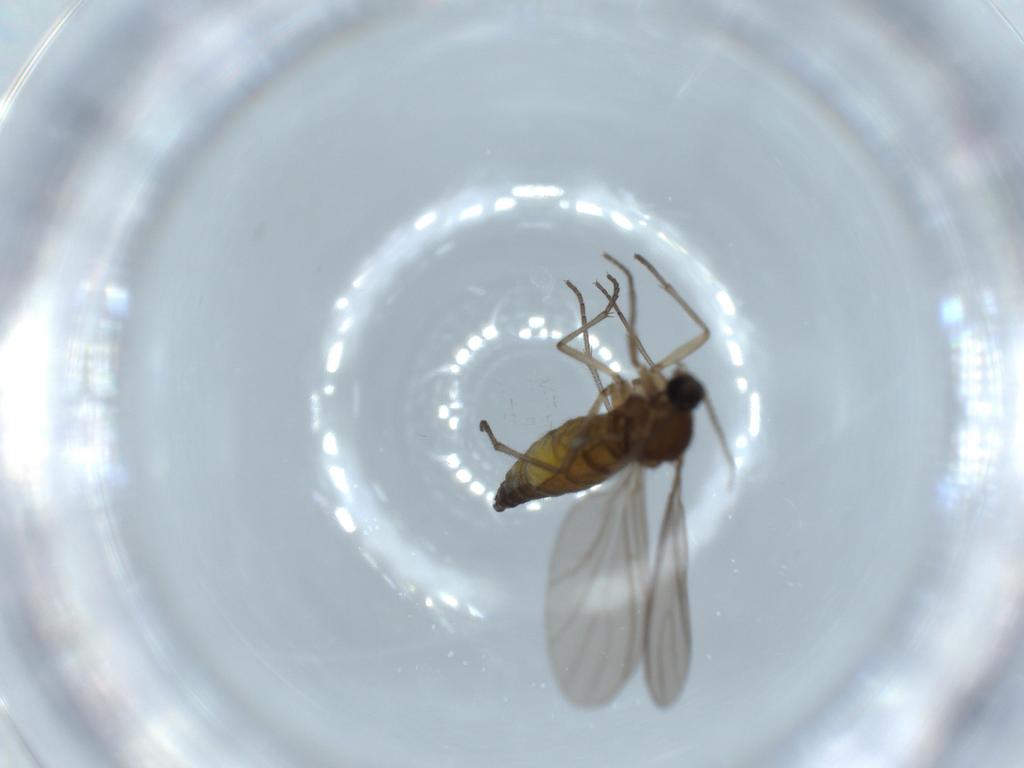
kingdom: Animalia
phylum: Arthropoda
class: Insecta
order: Diptera
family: Sciaridae
